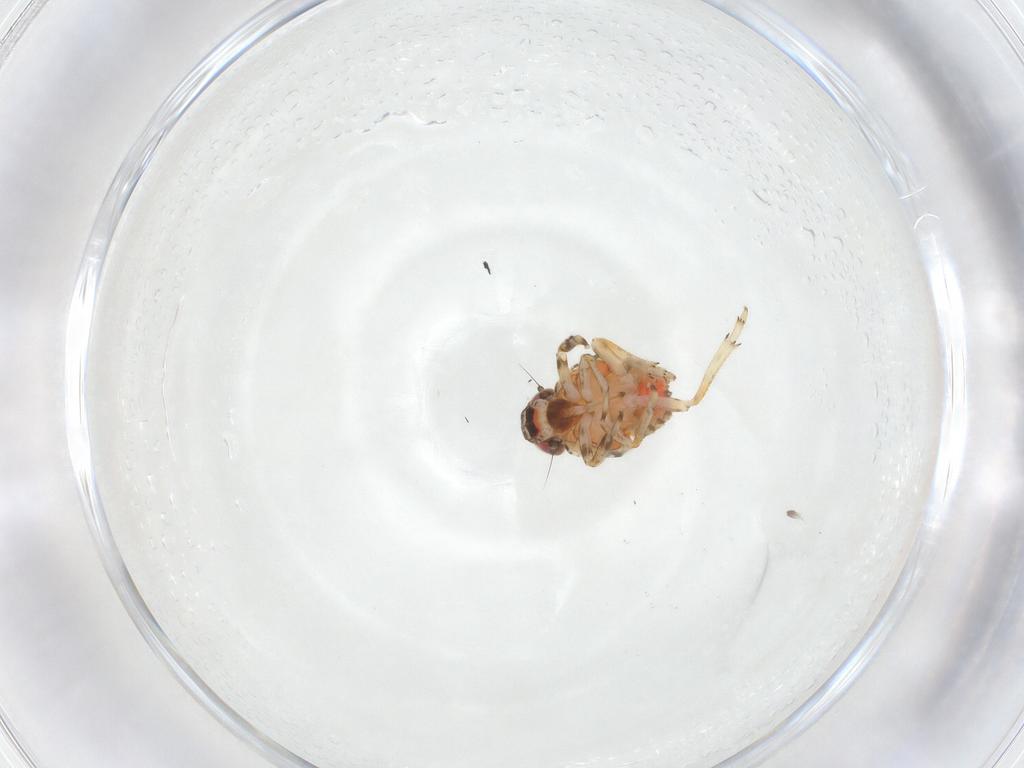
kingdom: Animalia
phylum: Arthropoda
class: Insecta
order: Hemiptera
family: Issidae
